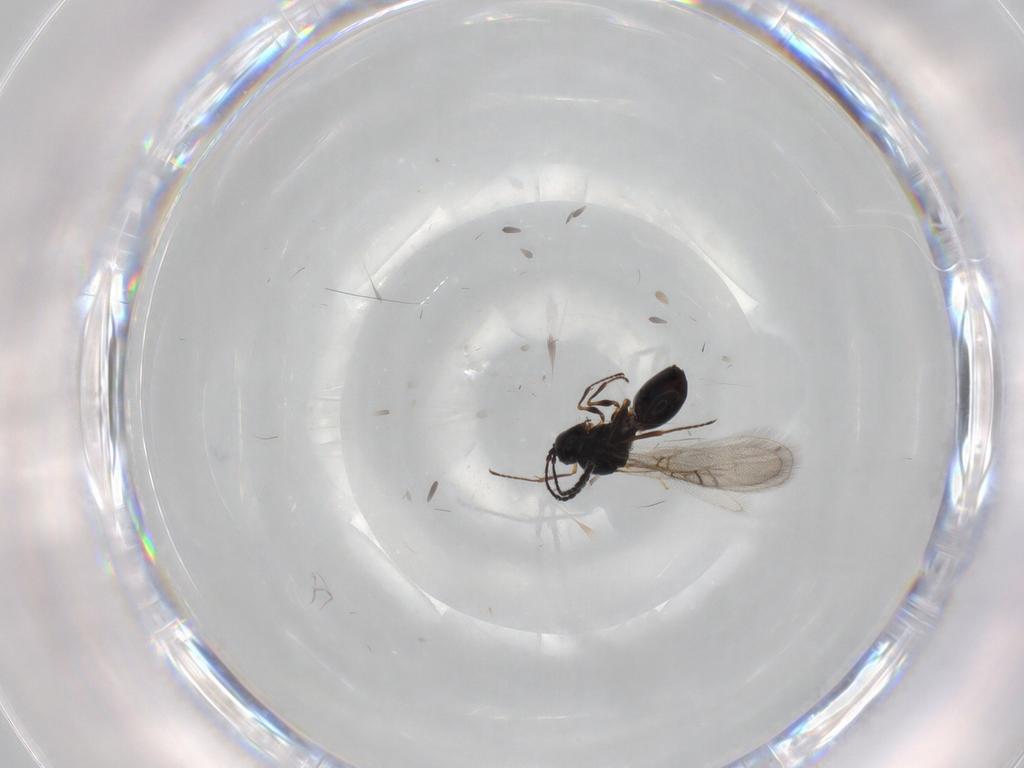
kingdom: Animalia
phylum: Arthropoda
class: Insecta
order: Hymenoptera
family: Figitidae
